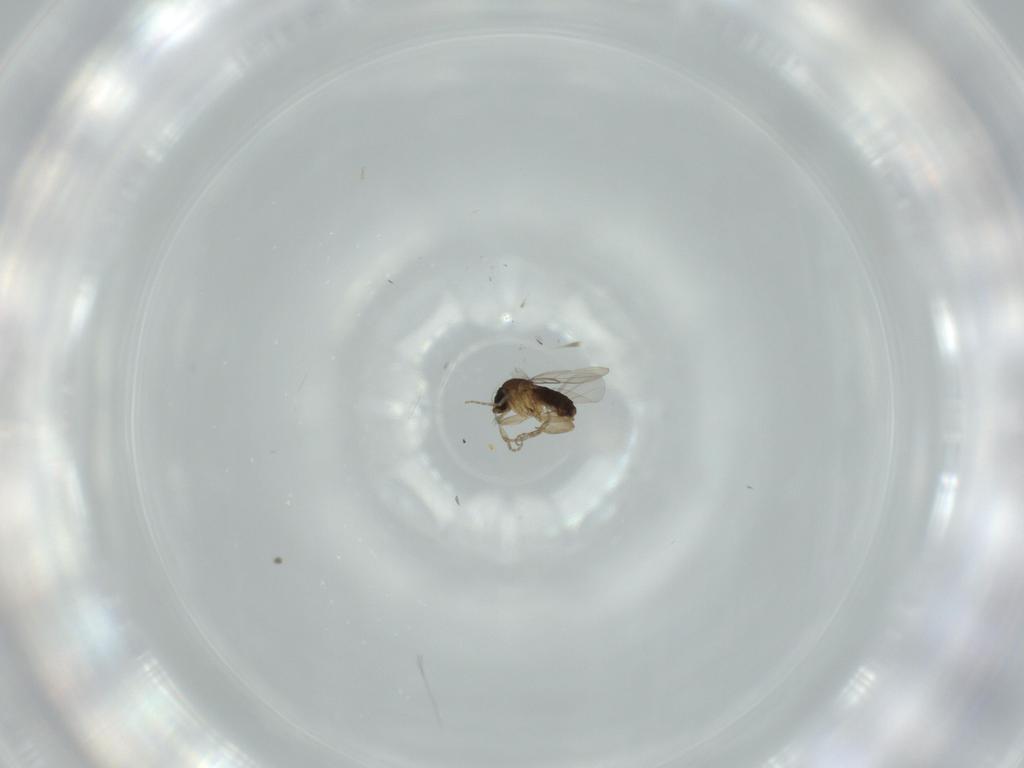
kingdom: Animalia
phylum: Arthropoda
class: Insecta
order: Diptera
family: Phoridae
